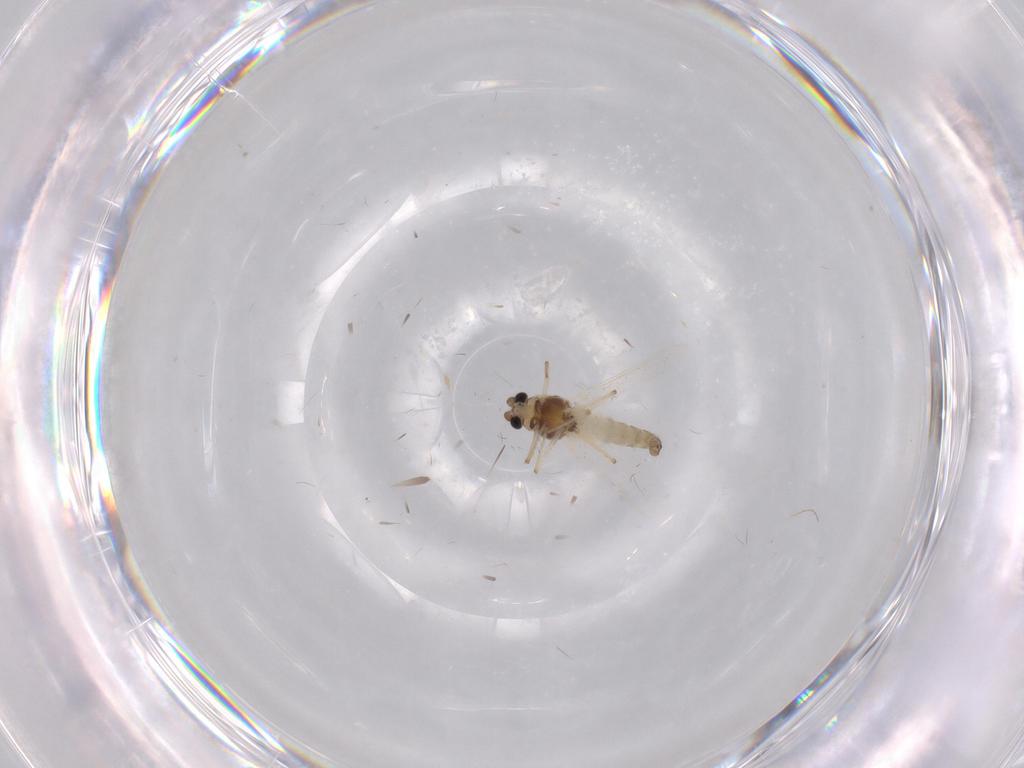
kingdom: Animalia
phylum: Arthropoda
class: Insecta
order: Diptera
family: Chironomidae
